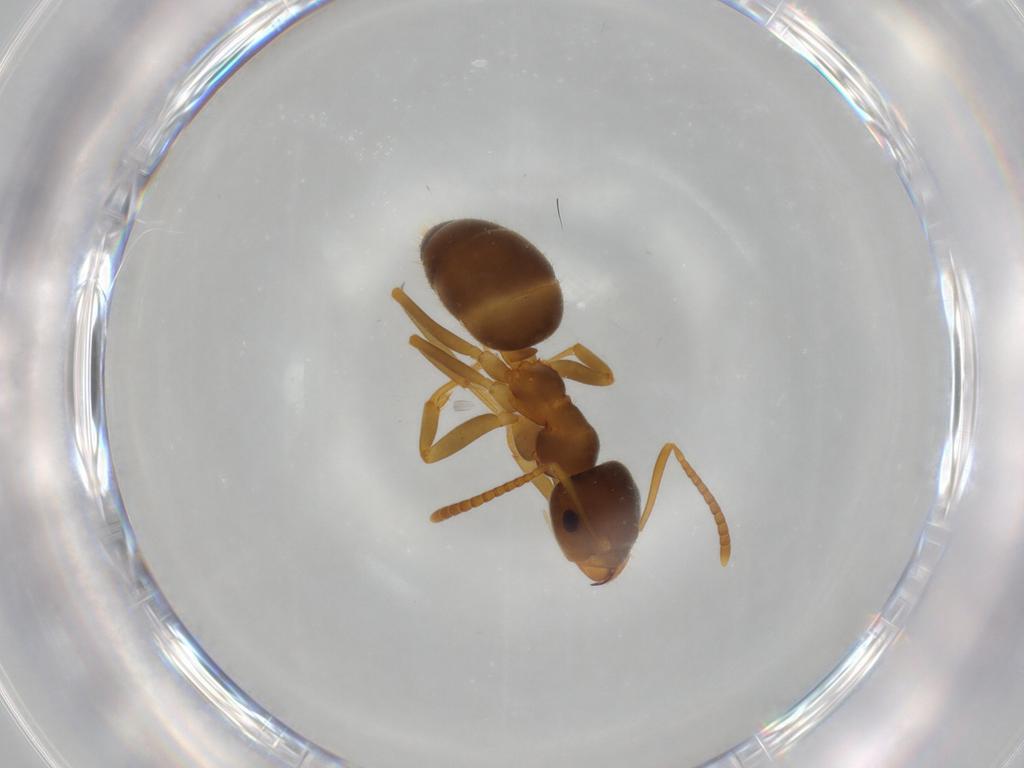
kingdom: Animalia
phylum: Arthropoda
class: Insecta
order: Hymenoptera
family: Formicidae
